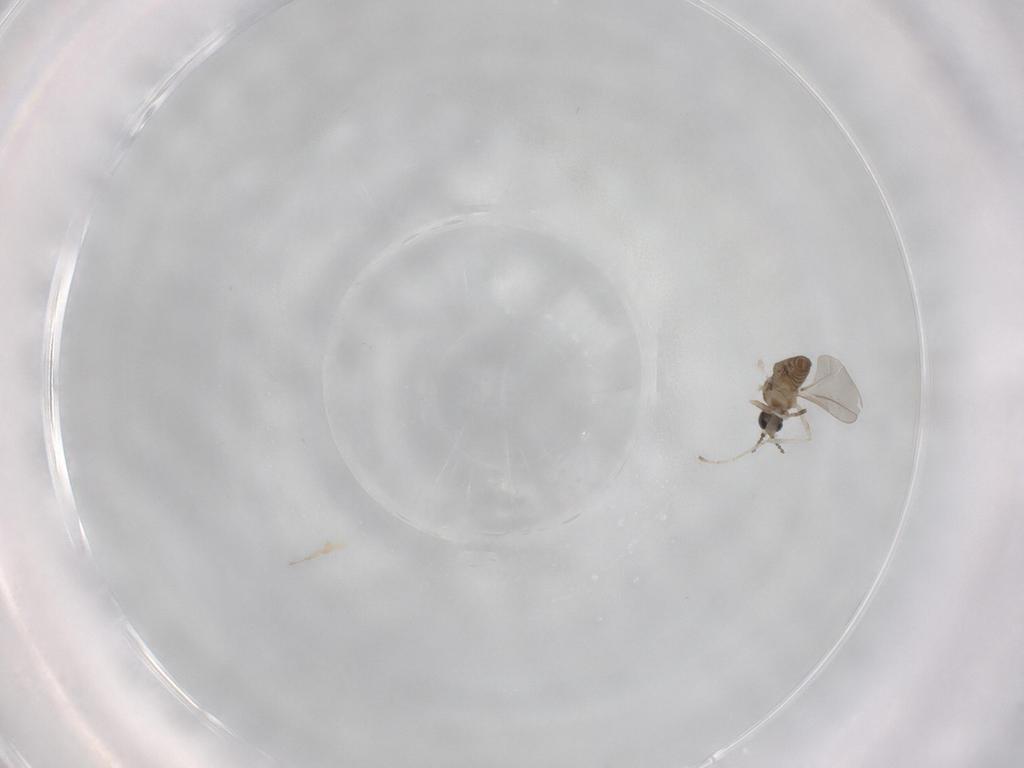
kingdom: Animalia
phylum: Arthropoda
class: Insecta
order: Diptera
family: Cecidomyiidae
